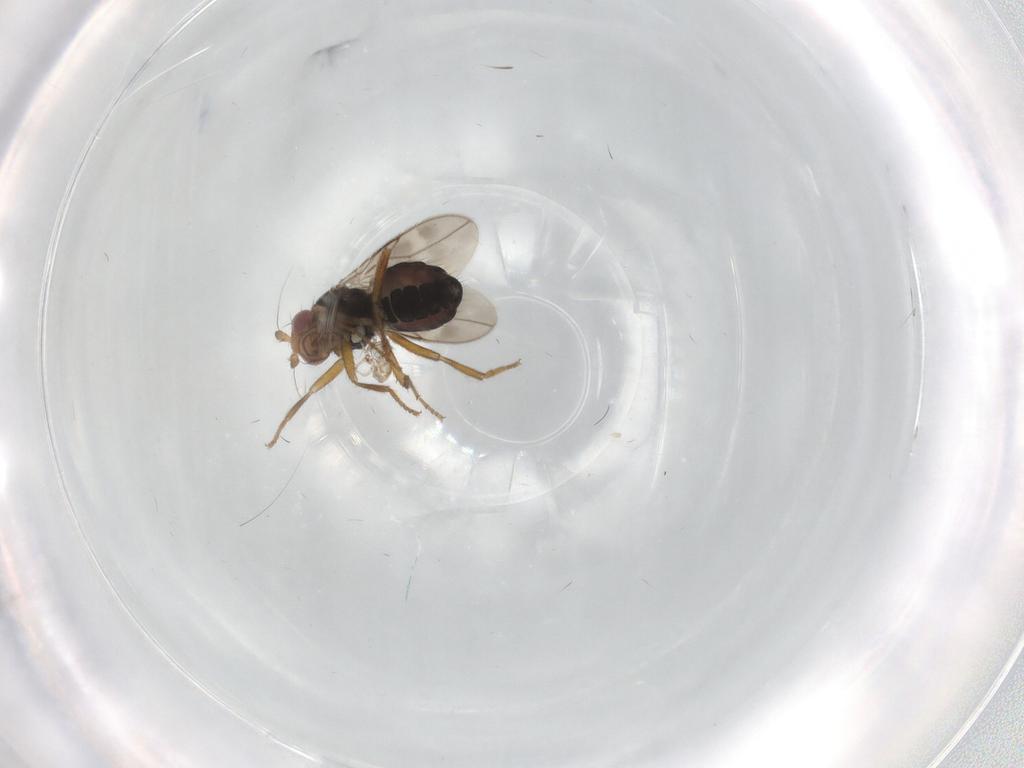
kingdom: Animalia
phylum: Arthropoda
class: Insecta
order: Diptera
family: Sphaeroceridae
